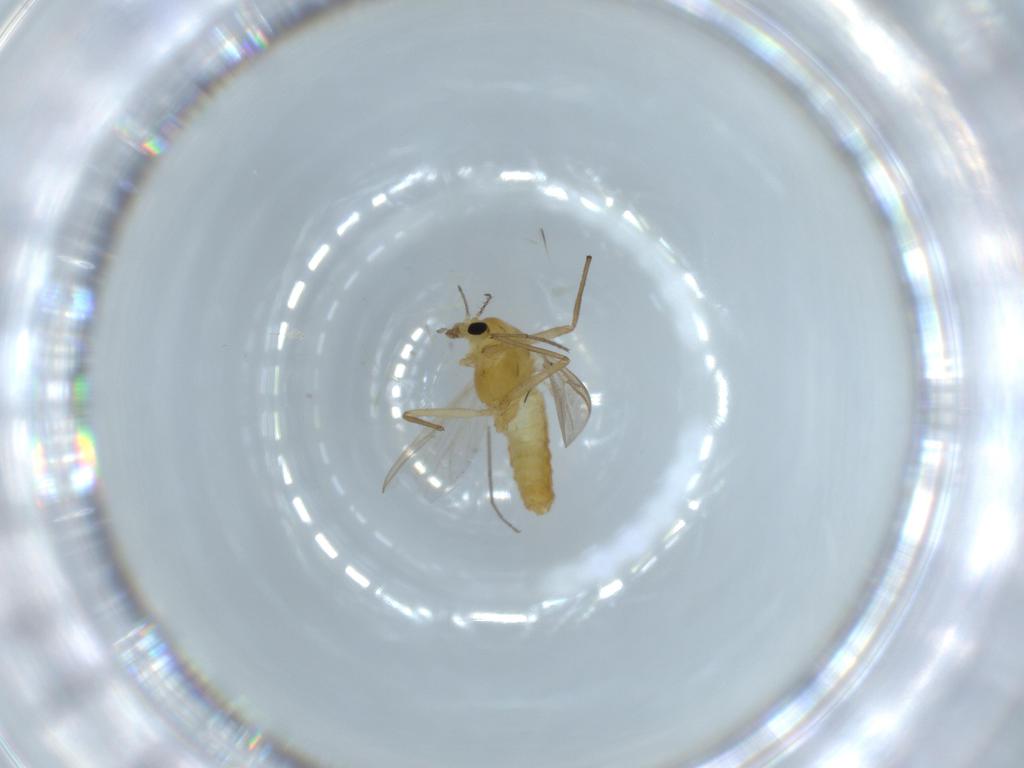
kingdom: Animalia
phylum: Arthropoda
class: Insecta
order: Diptera
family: Chironomidae
